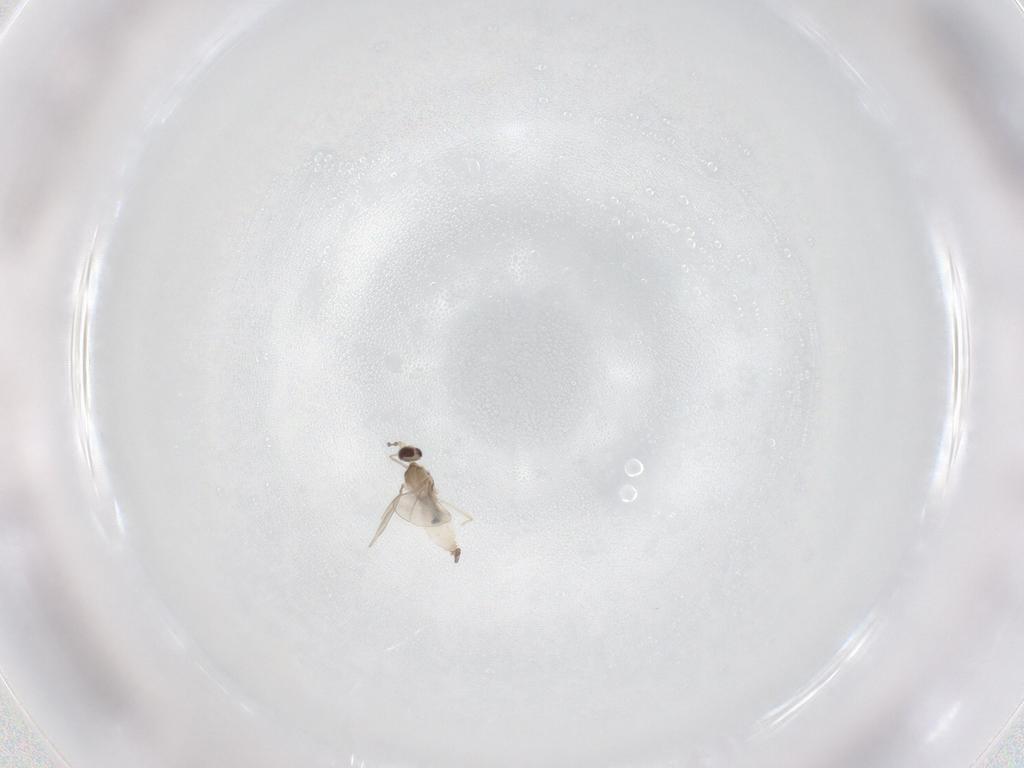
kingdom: Animalia
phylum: Arthropoda
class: Insecta
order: Diptera
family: Cecidomyiidae
